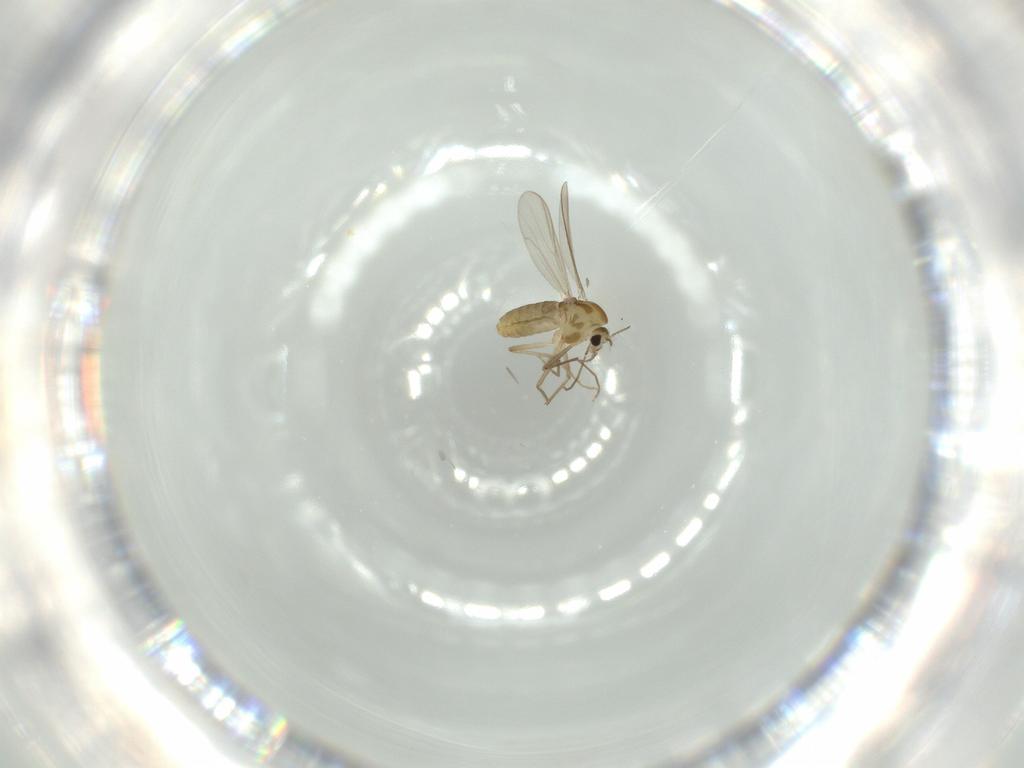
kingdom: Animalia
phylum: Arthropoda
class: Insecta
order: Diptera
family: Chironomidae
